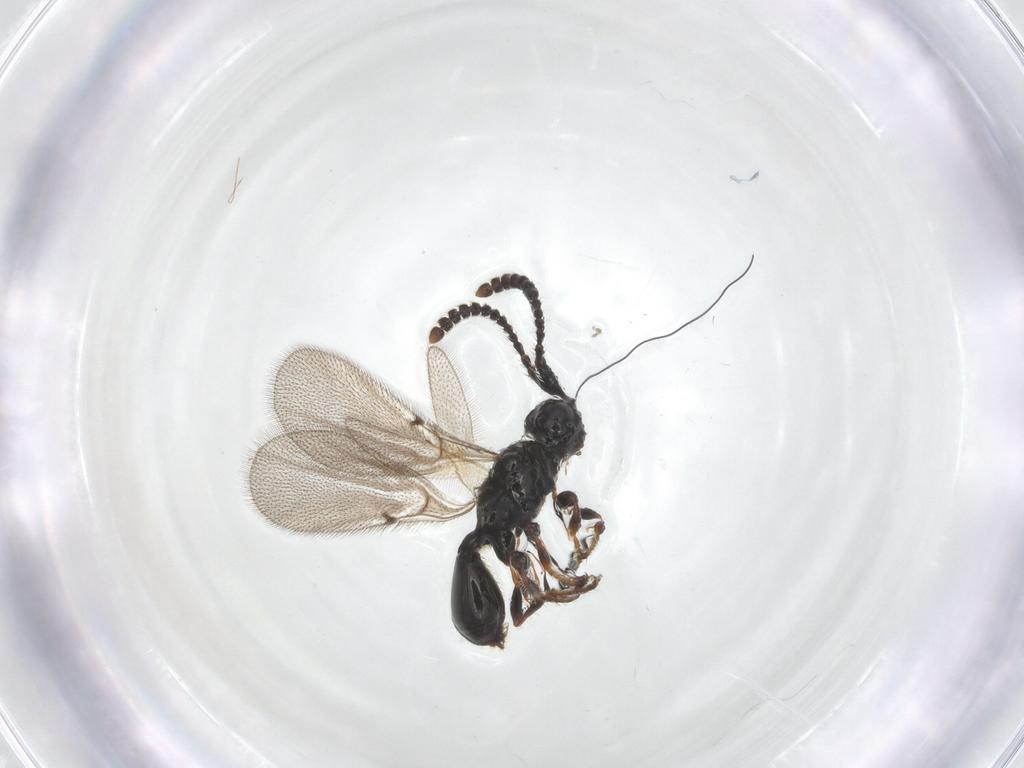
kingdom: Animalia
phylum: Arthropoda
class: Insecta
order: Hymenoptera
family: Diapriidae
